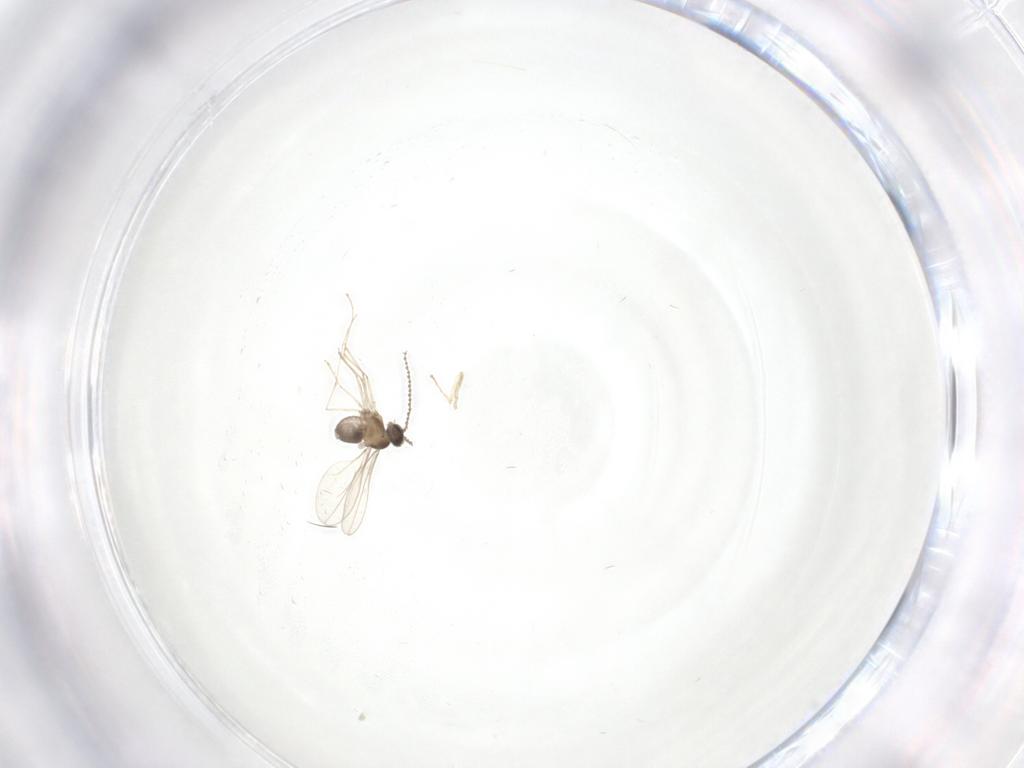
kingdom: Animalia
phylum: Arthropoda
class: Insecta
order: Diptera
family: Cecidomyiidae
